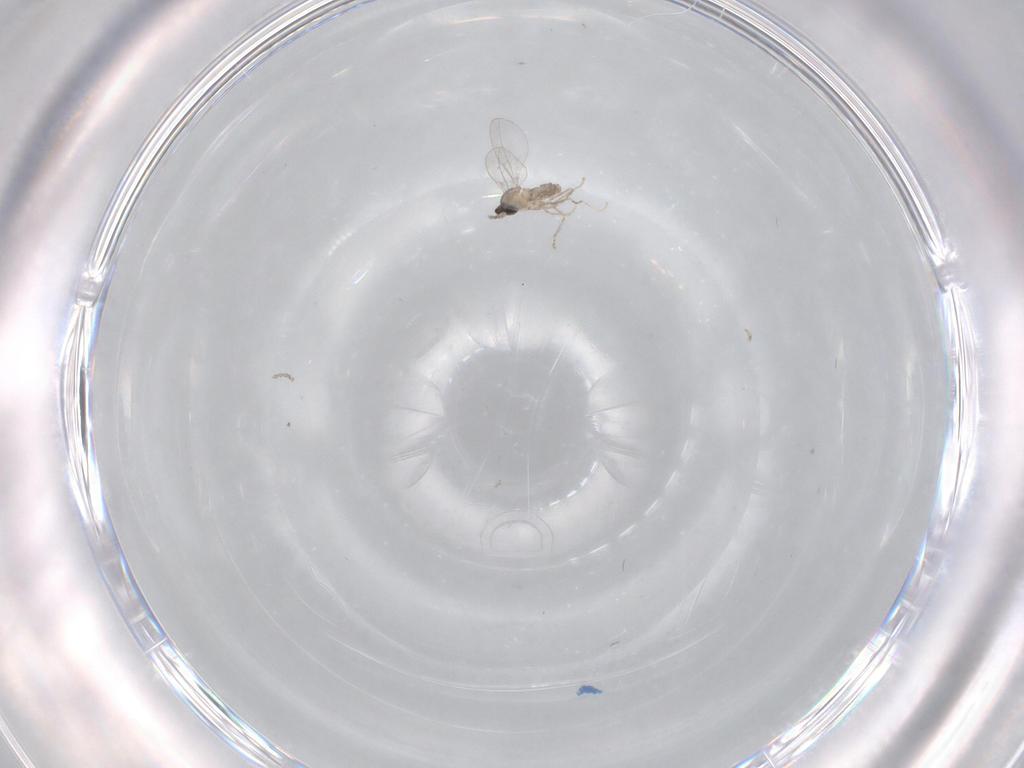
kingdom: Animalia
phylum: Arthropoda
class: Insecta
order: Diptera
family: Cecidomyiidae
